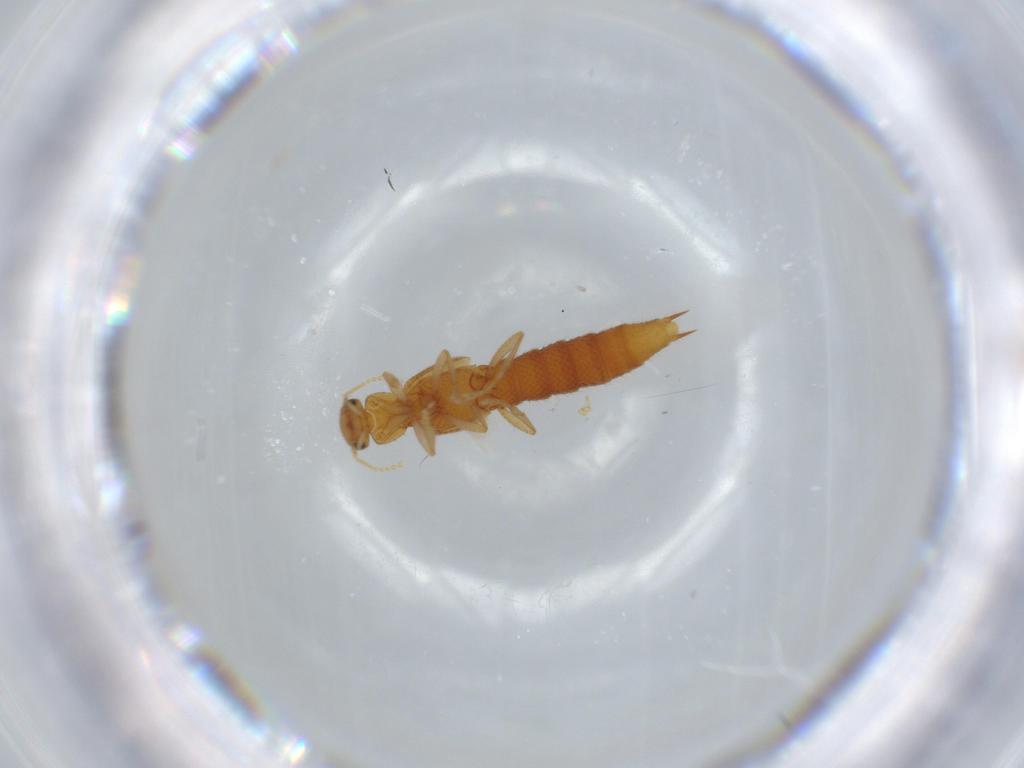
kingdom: Animalia
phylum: Arthropoda
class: Insecta
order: Coleoptera
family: Staphylinidae
